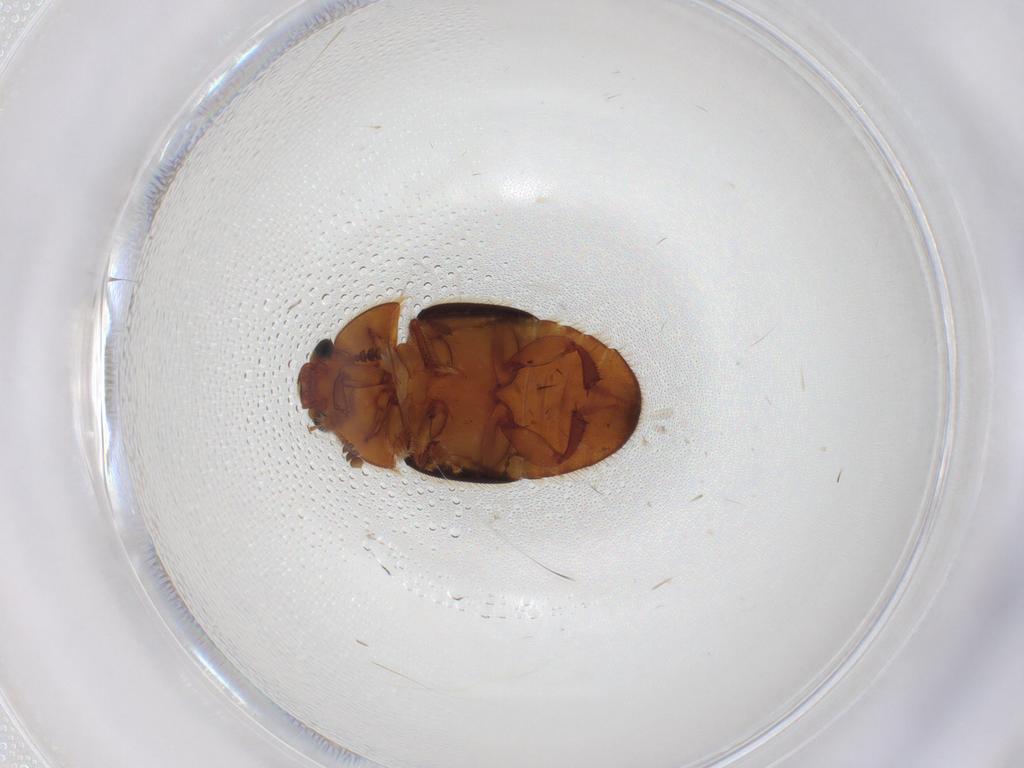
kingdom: Animalia
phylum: Arthropoda
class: Insecta
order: Coleoptera
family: Nitidulidae
